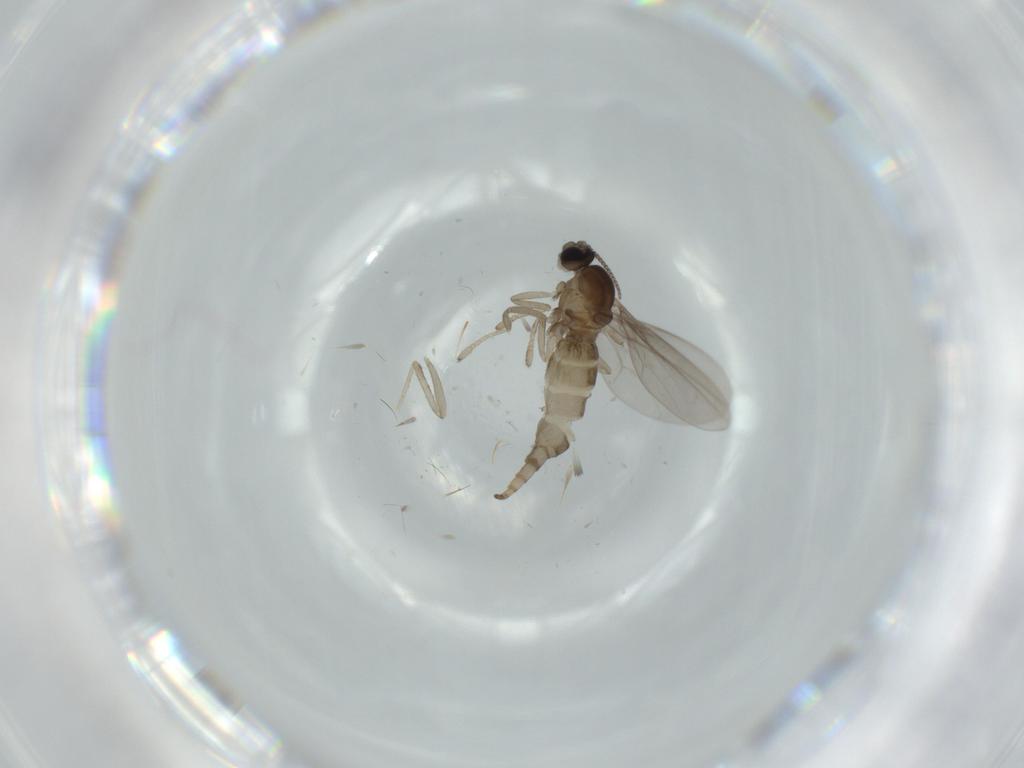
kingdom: Animalia
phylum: Arthropoda
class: Insecta
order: Diptera
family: Cecidomyiidae
